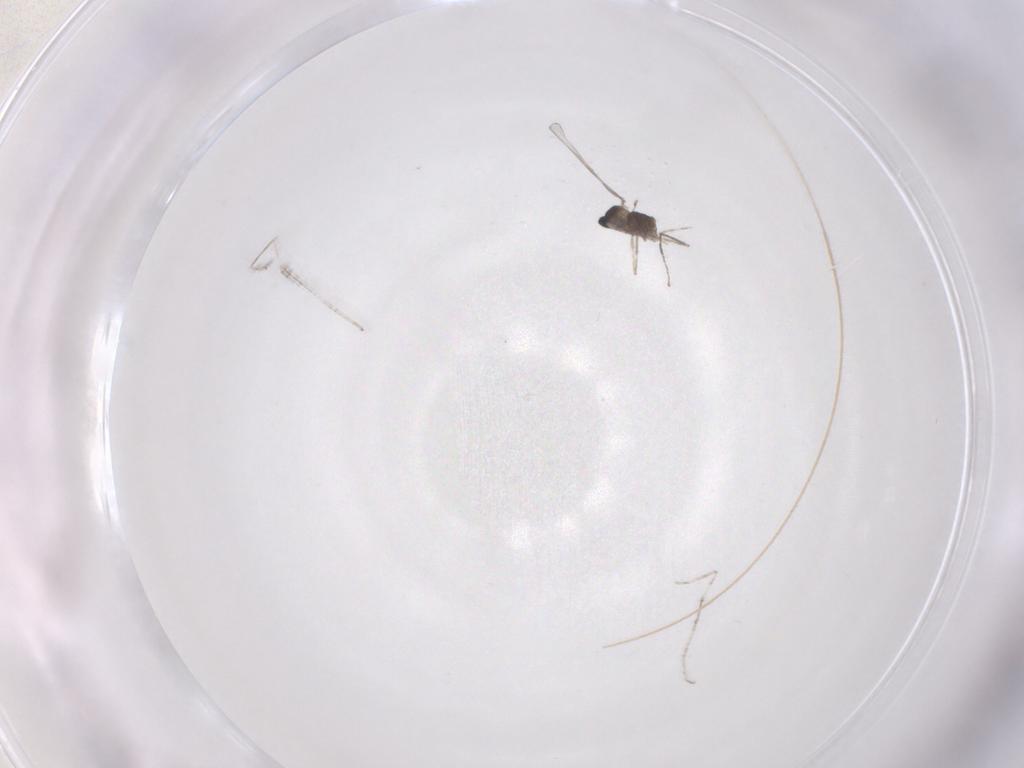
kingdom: Animalia
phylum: Arthropoda
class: Insecta
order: Diptera
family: Cecidomyiidae
